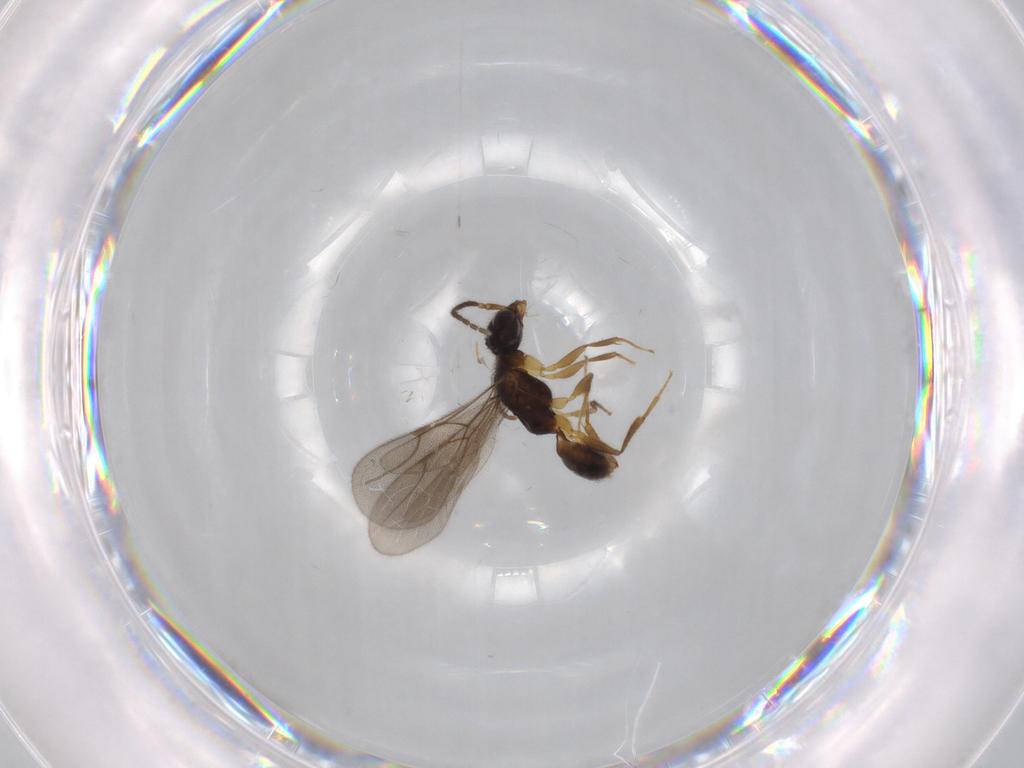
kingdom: Animalia
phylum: Arthropoda
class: Insecta
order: Hymenoptera
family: Bethylidae
